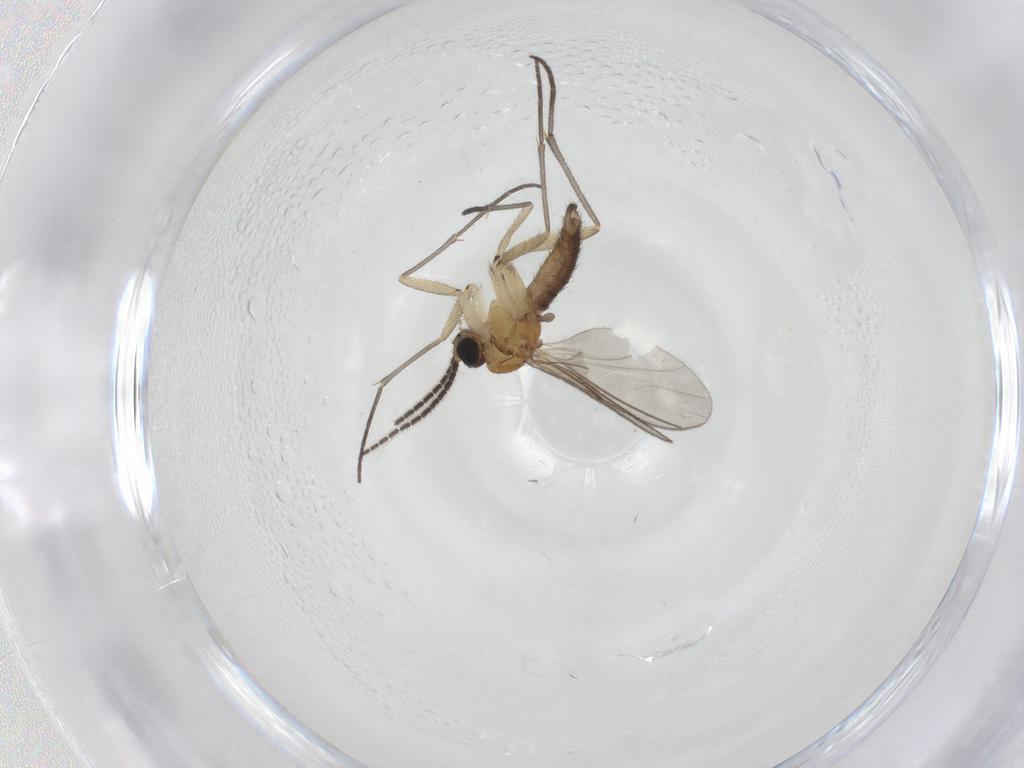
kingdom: Animalia
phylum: Arthropoda
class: Insecta
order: Diptera
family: Sciaridae
